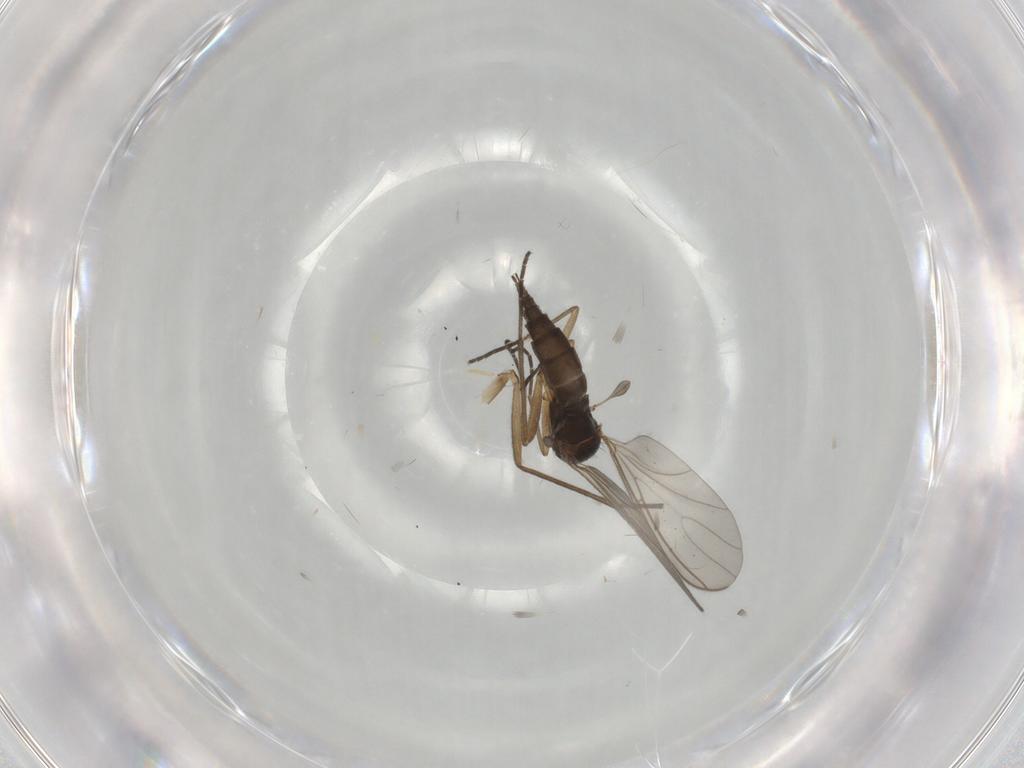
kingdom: Animalia
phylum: Arthropoda
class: Insecta
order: Diptera
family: Sciaridae
